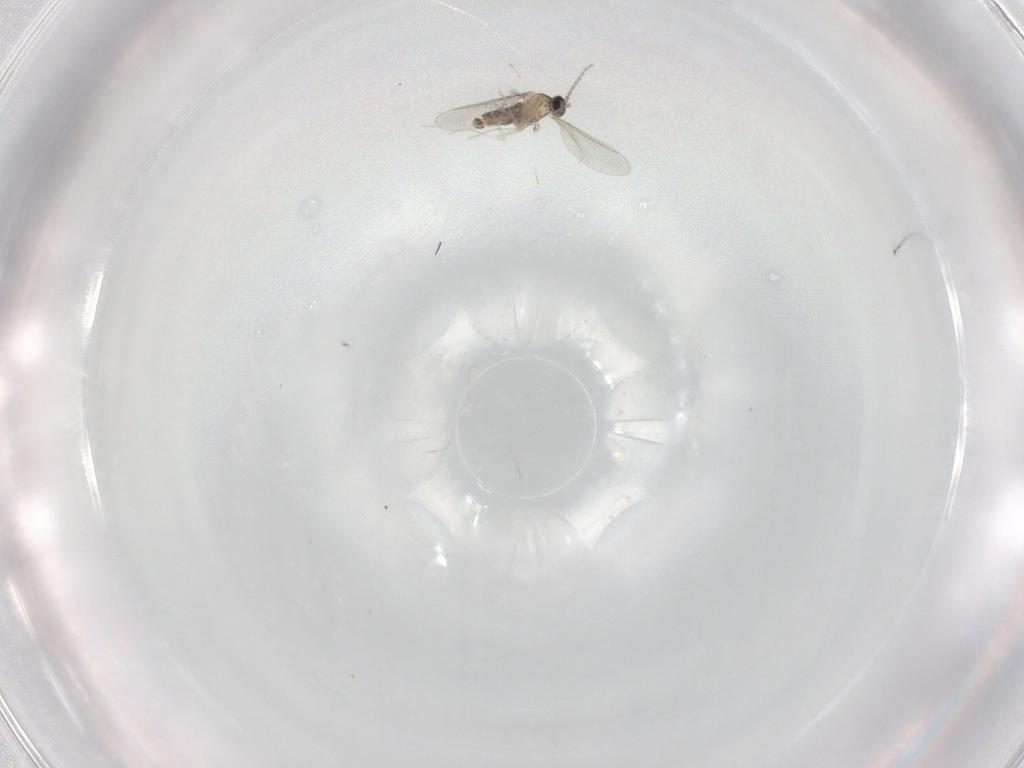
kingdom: Animalia
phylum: Arthropoda
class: Insecta
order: Diptera
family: Cecidomyiidae
